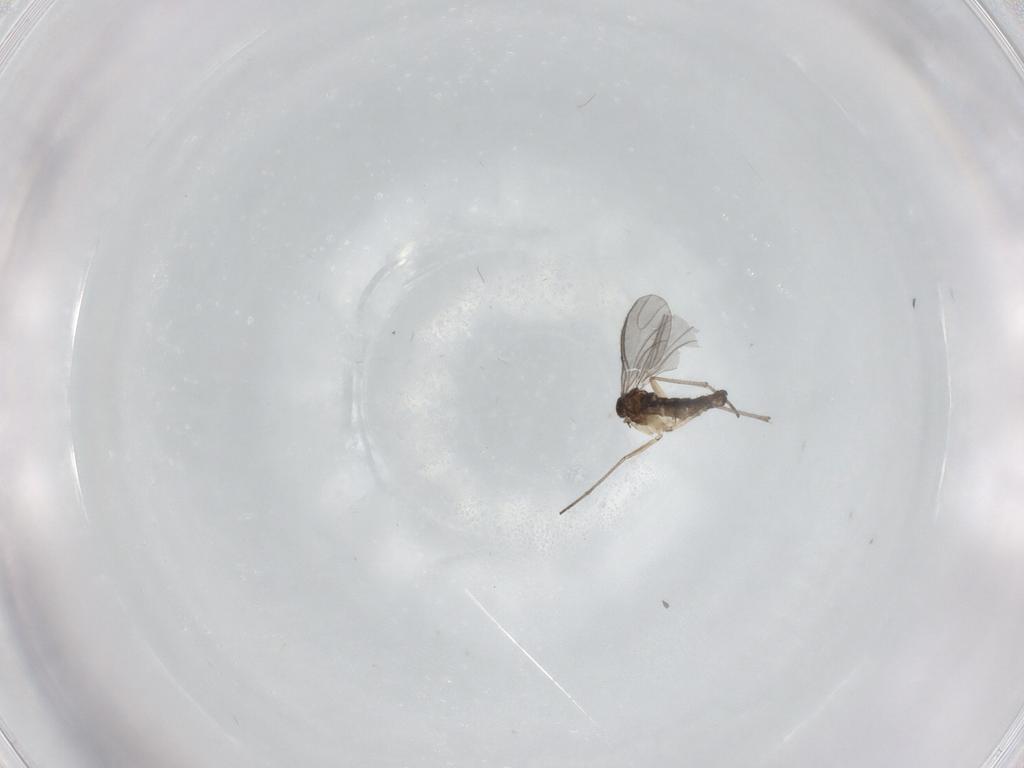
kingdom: Animalia
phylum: Arthropoda
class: Insecta
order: Diptera
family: Sciaridae
